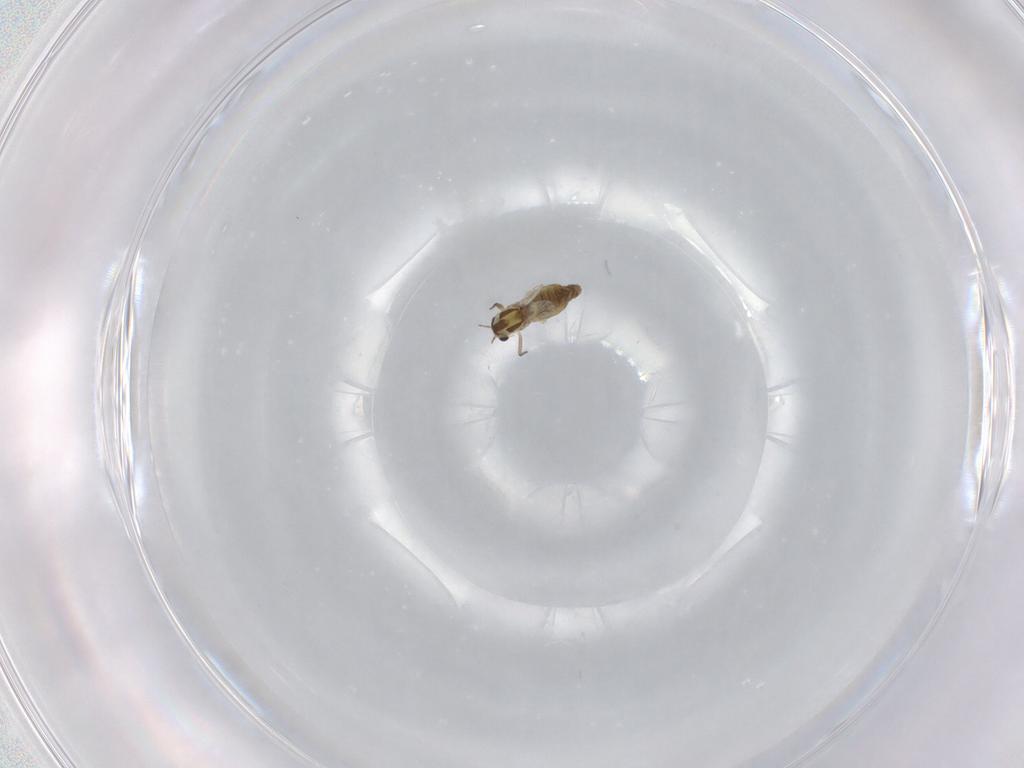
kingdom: Animalia
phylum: Arthropoda
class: Insecta
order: Diptera
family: Chironomidae
